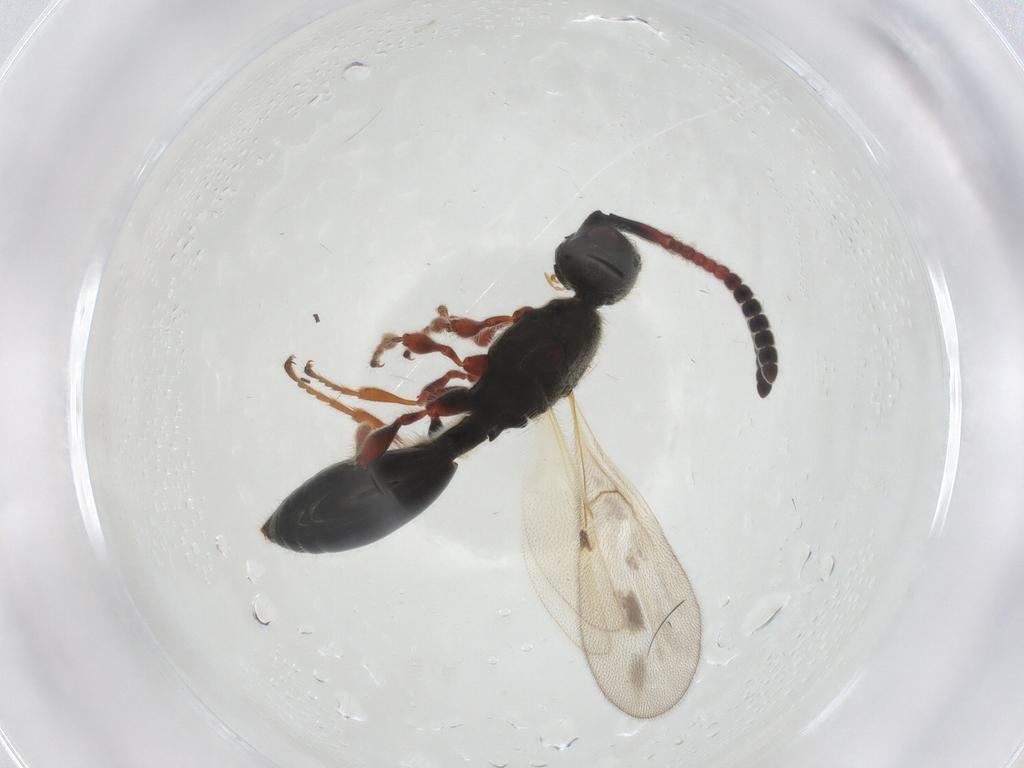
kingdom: Animalia
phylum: Arthropoda
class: Insecta
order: Hymenoptera
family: Diapriidae
